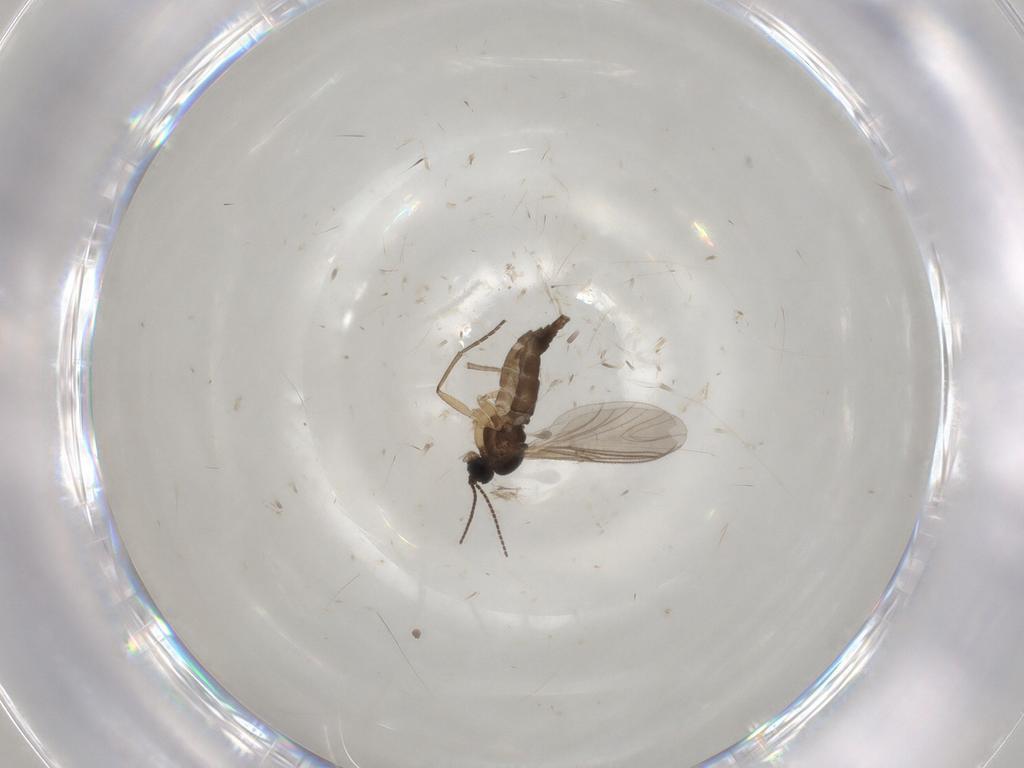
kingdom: Animalia
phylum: Arthropoda
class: Insecta
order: Diptera
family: Sciaridae
